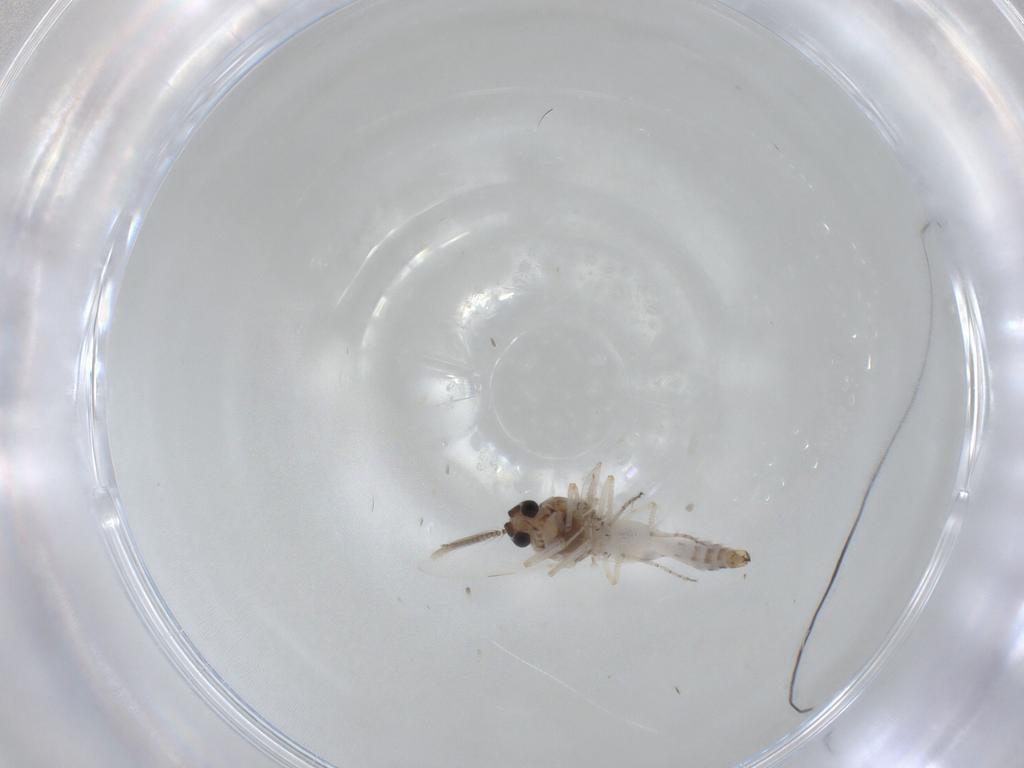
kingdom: Animalia
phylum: Arthropoda
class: Insecta
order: Diptera
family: Ceratopogonidae
